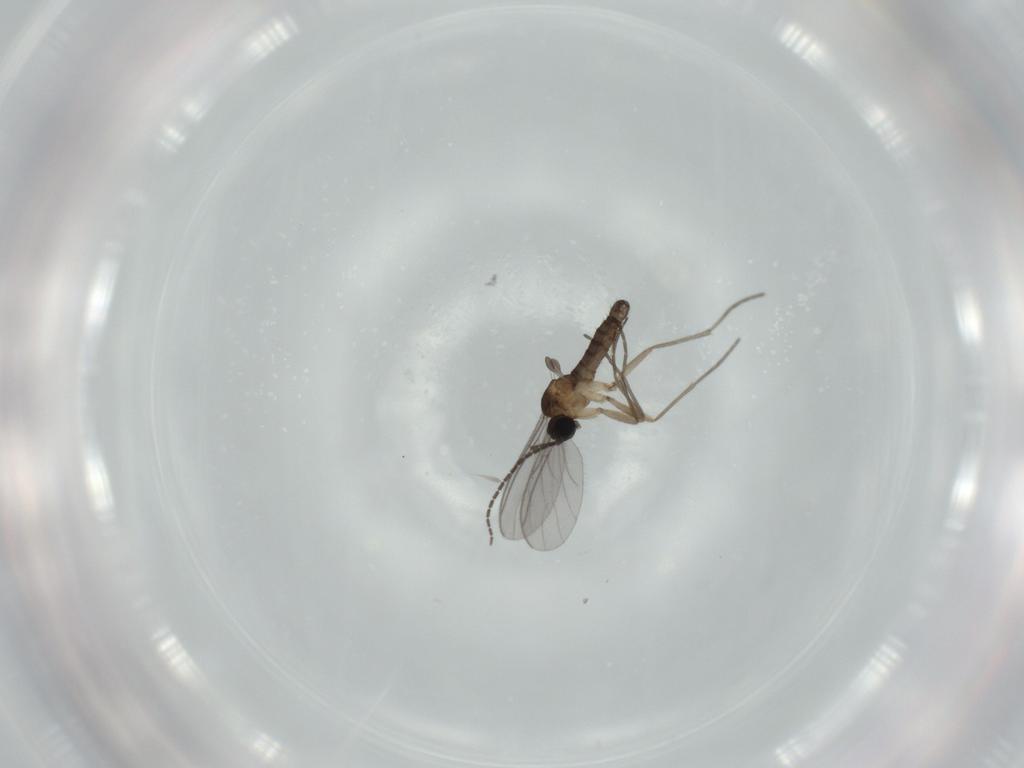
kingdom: Animalia
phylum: Arthropoda
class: Insecta
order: Diptera
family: Sciaridae
